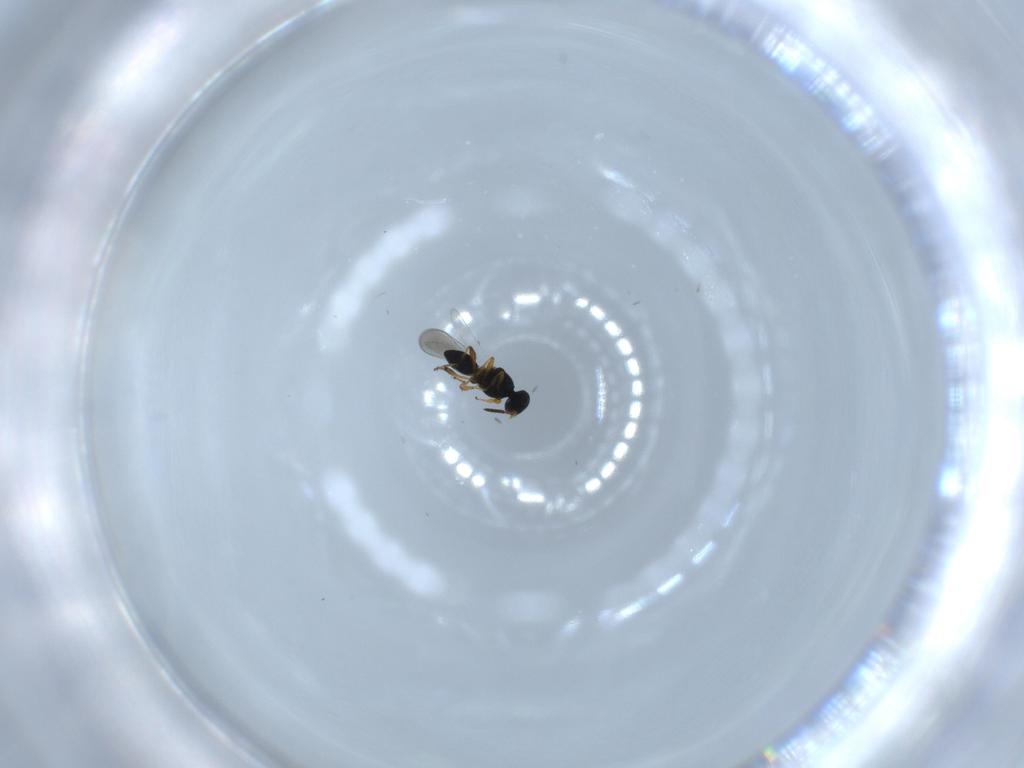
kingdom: Animalia
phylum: Arthropoda
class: Insecta
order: Hymenoptera
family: Platygastridae
